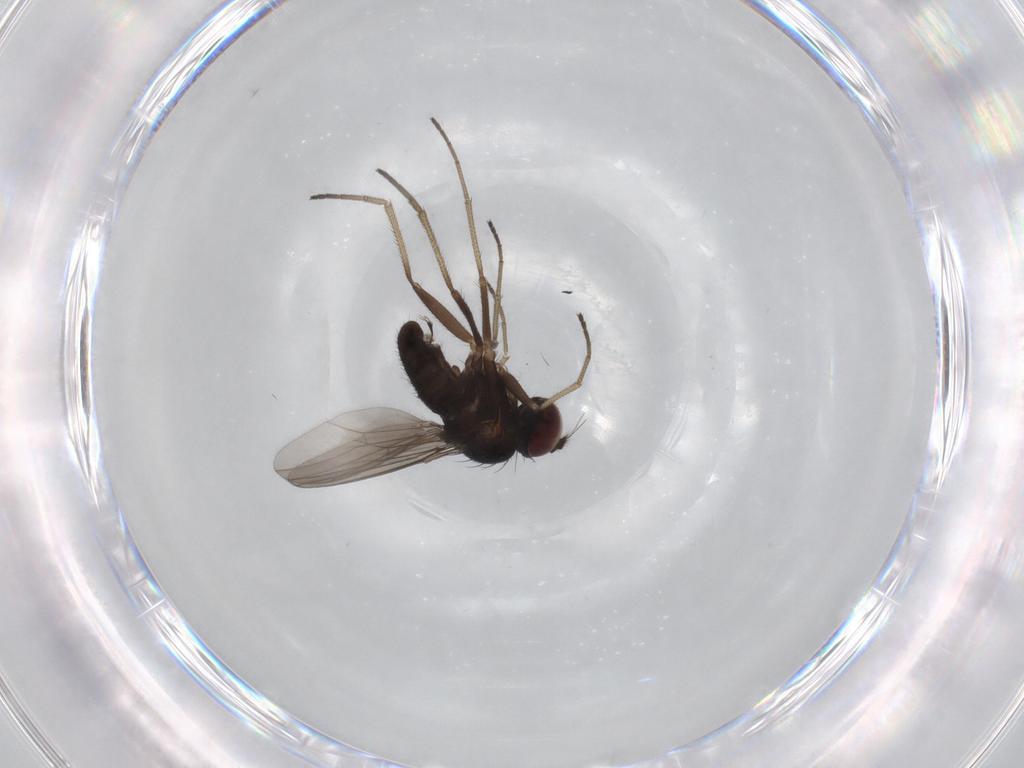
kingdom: Animalia
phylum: Arthropoda
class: Insecta
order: Diptera
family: Dolichopodidae
